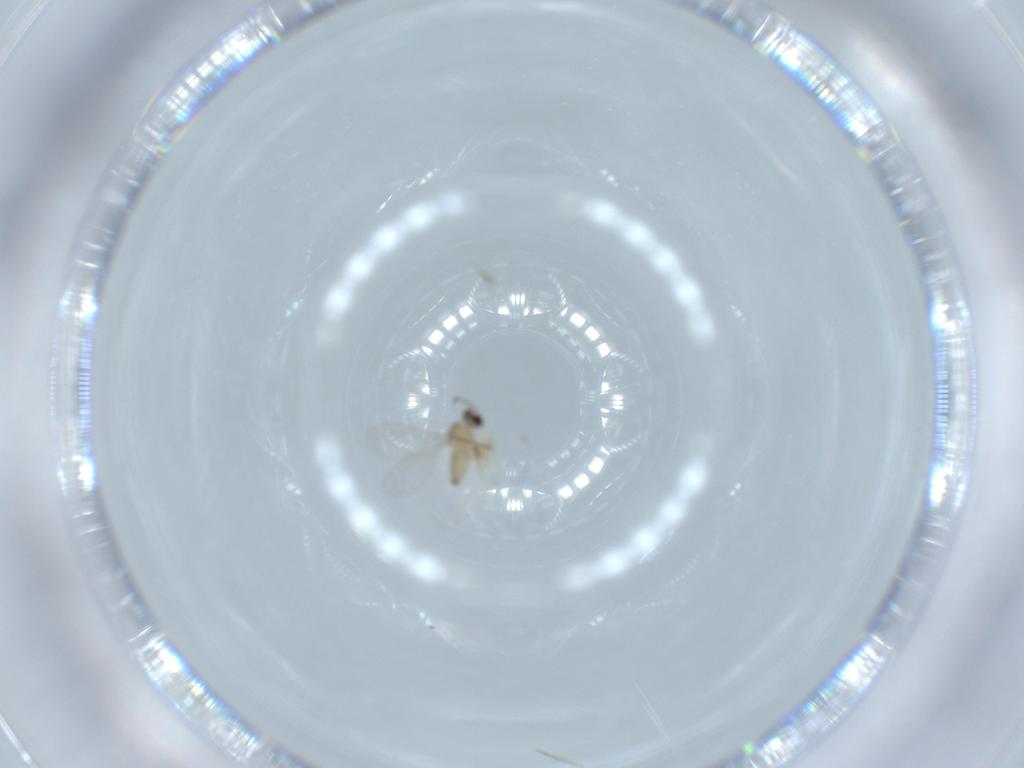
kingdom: Animalia
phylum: Arthropoda
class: Insecta
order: Diptera
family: Cecidomyiidae
